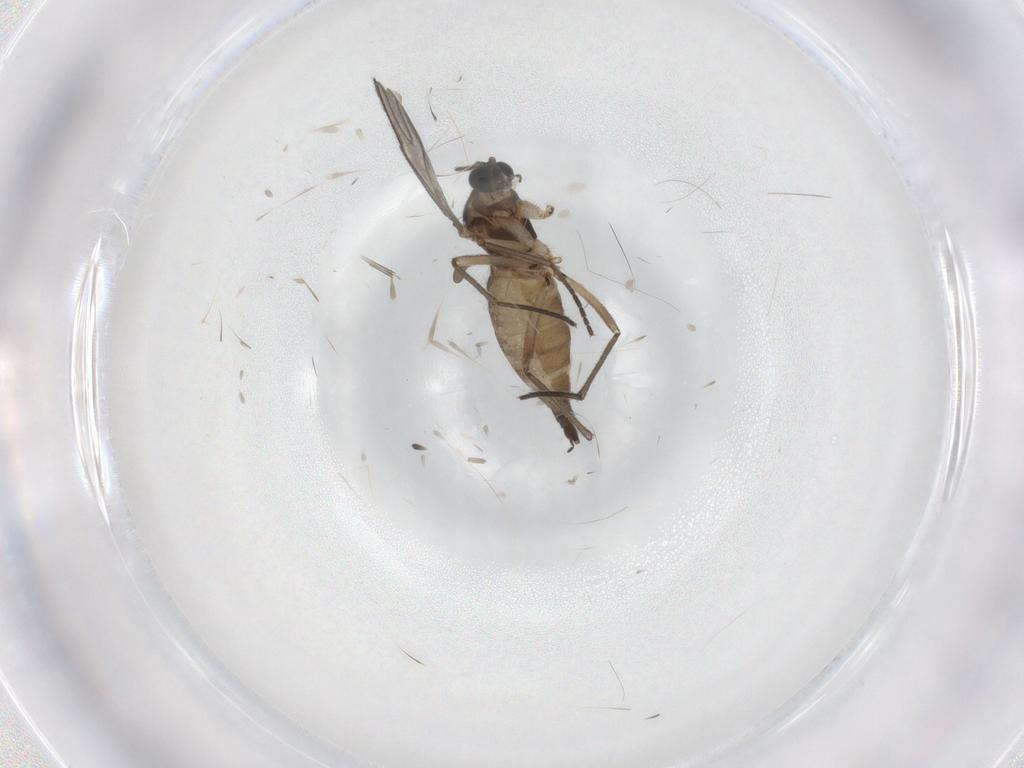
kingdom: Animalia
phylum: Arthropoda
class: Insecta
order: Diptera
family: Sciaridae
